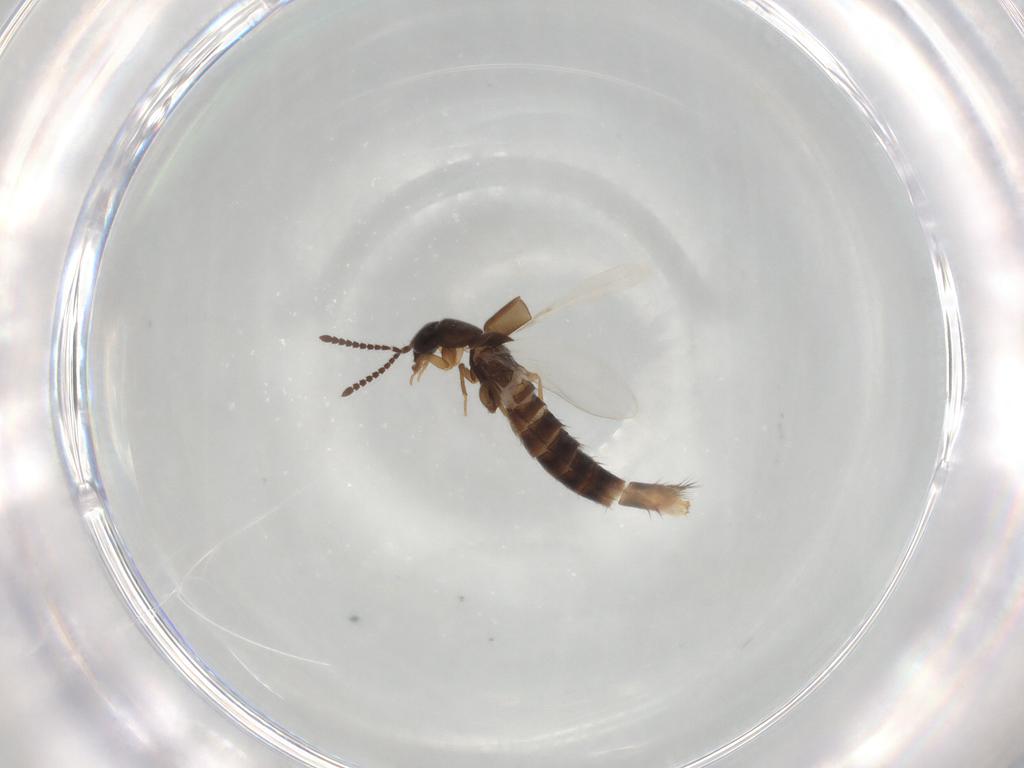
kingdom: Animalia
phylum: Arthropoda
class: Insecta
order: Coleoptera
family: Staphylinidae
